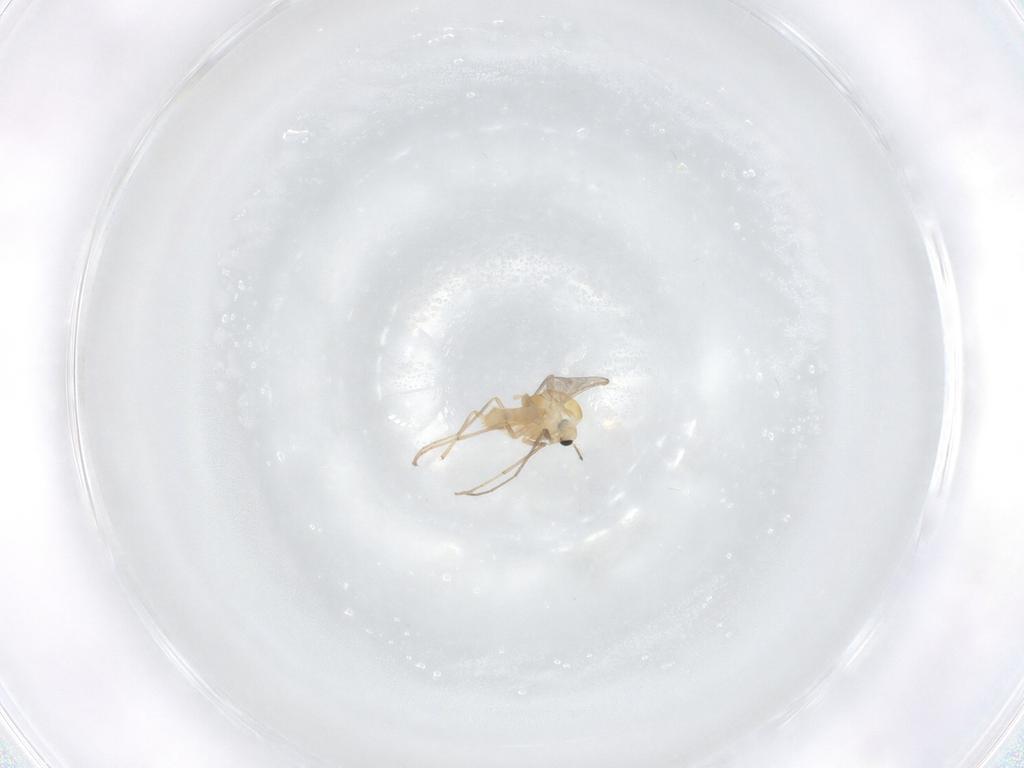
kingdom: Animalia
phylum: Arthropoda
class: Insecta
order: Diptera
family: Chironomidae
